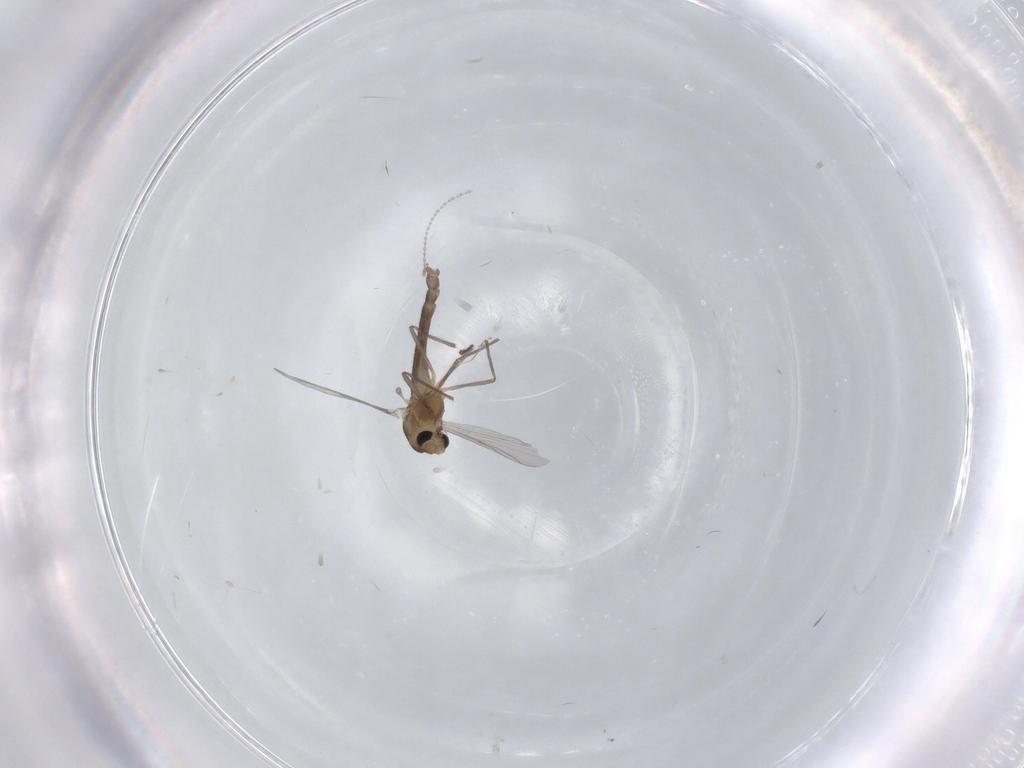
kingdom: Animalia
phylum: Arthropoda
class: Insecta
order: Diptera
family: Chironomidae
